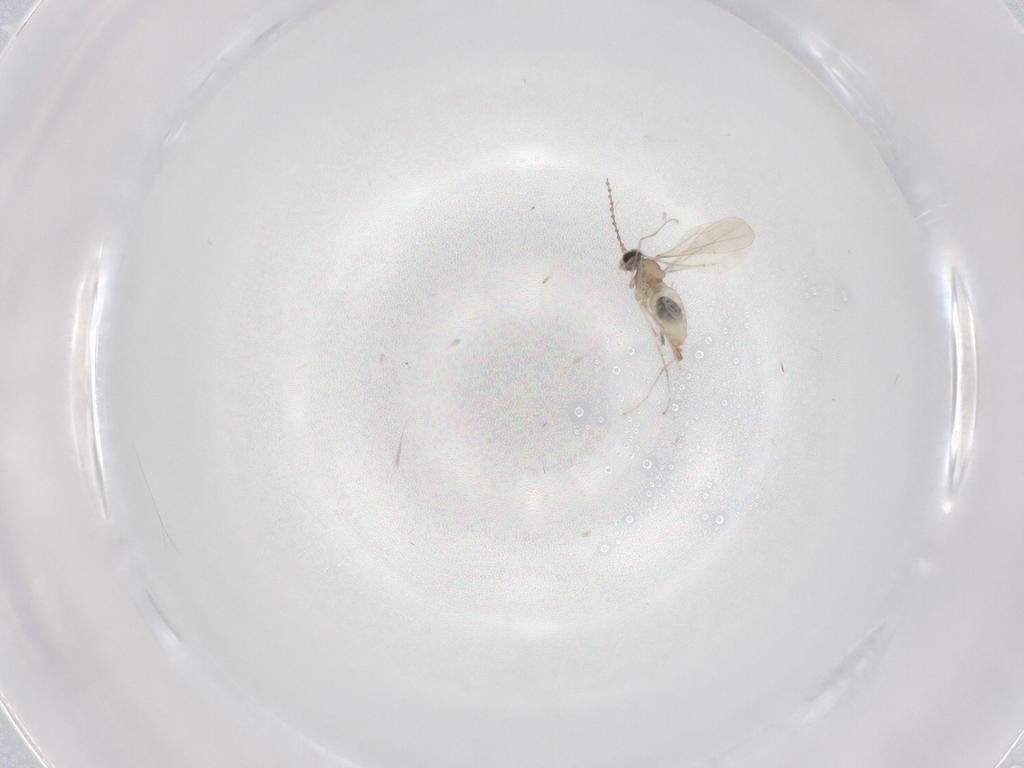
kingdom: Animalia
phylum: Arthropoda
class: Insecta
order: Diptera
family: Cecidomyiidae
